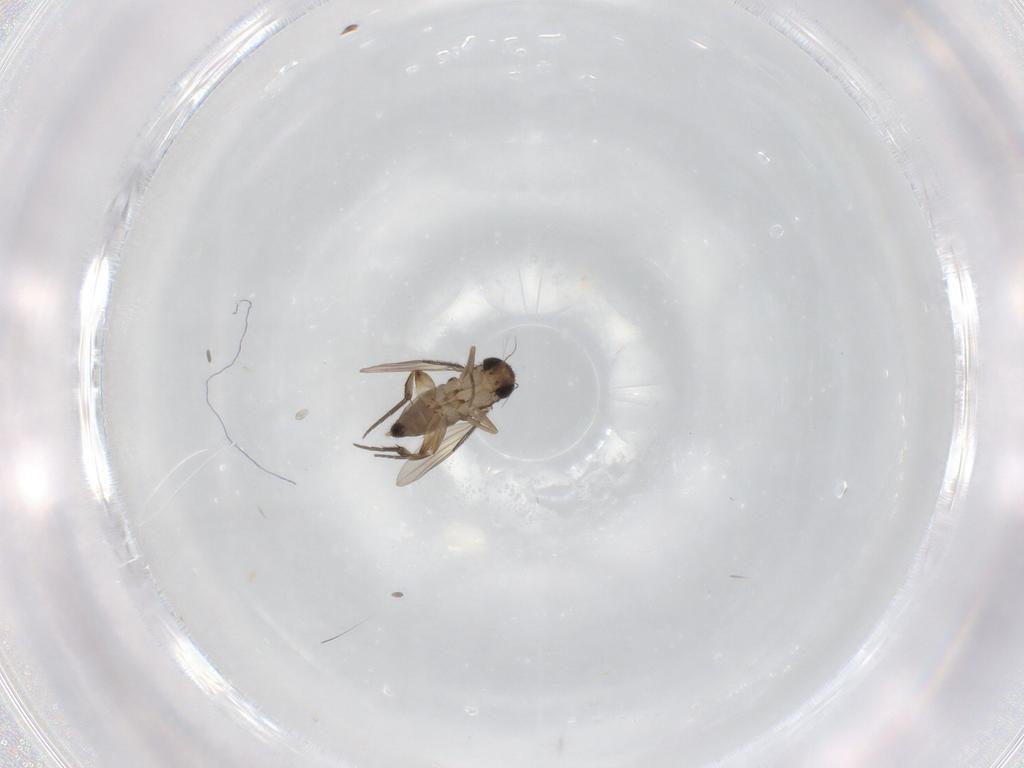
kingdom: Animalia
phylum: Arthropoda
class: Insecta
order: Diptera
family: Phoridae
